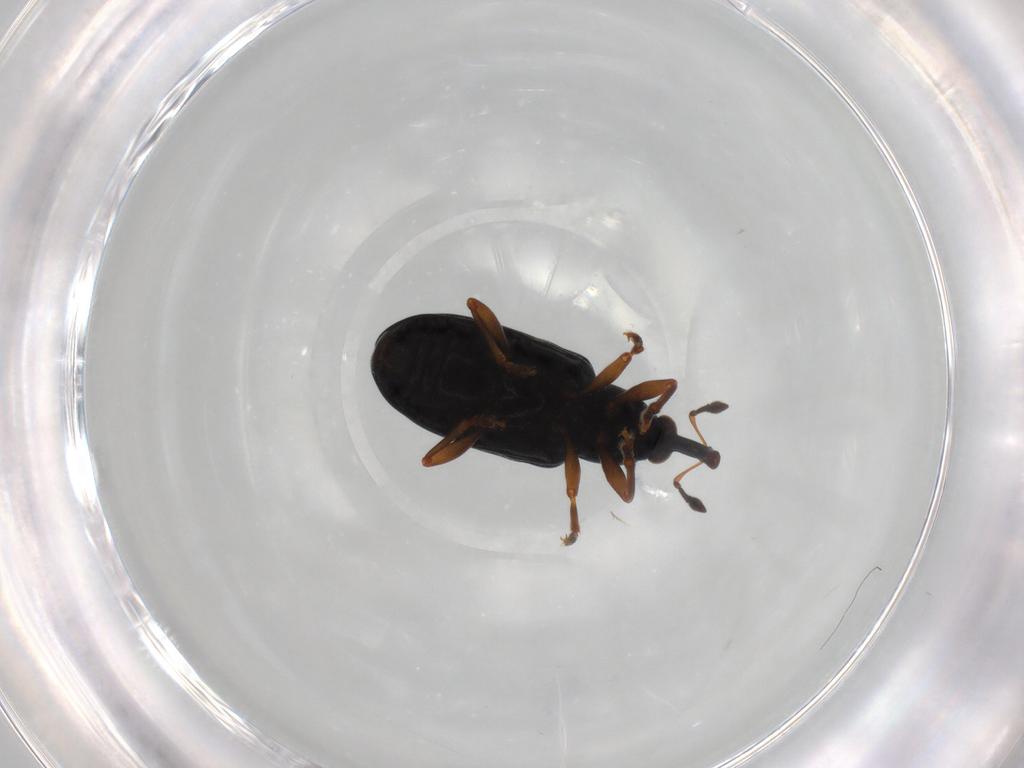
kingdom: Animalia
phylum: Arthropoda
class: Insecta
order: Coleoptera
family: Curculionidae
